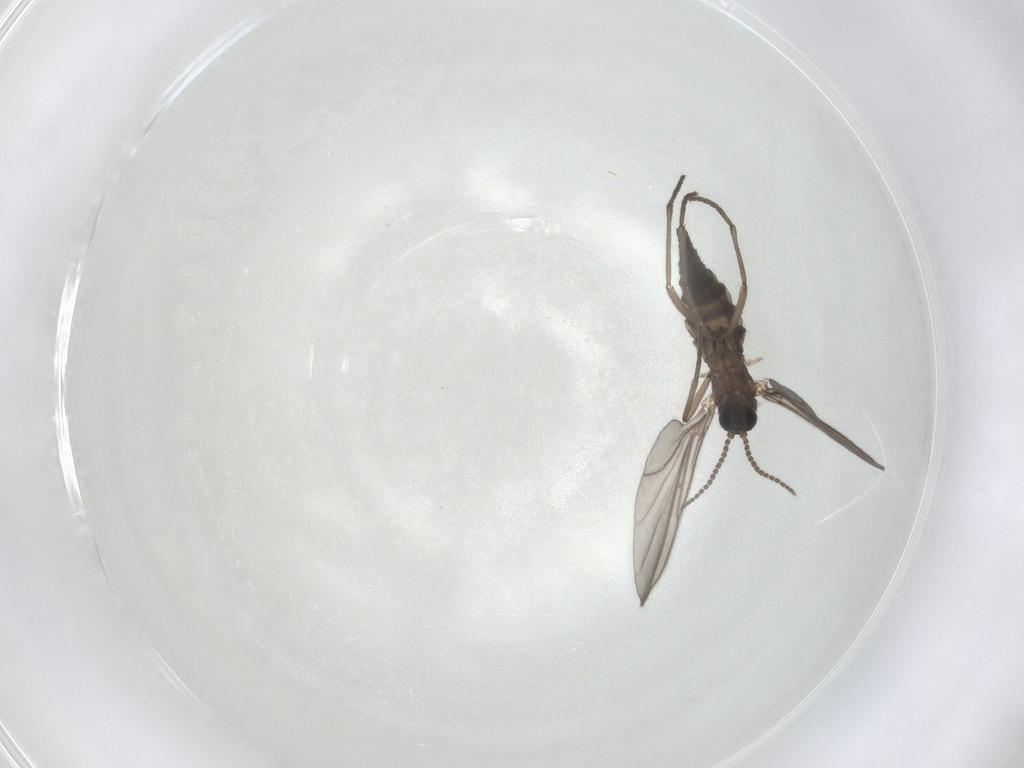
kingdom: Animalia
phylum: Arthropoda
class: Insecta
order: Diptera
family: Sciaridae
